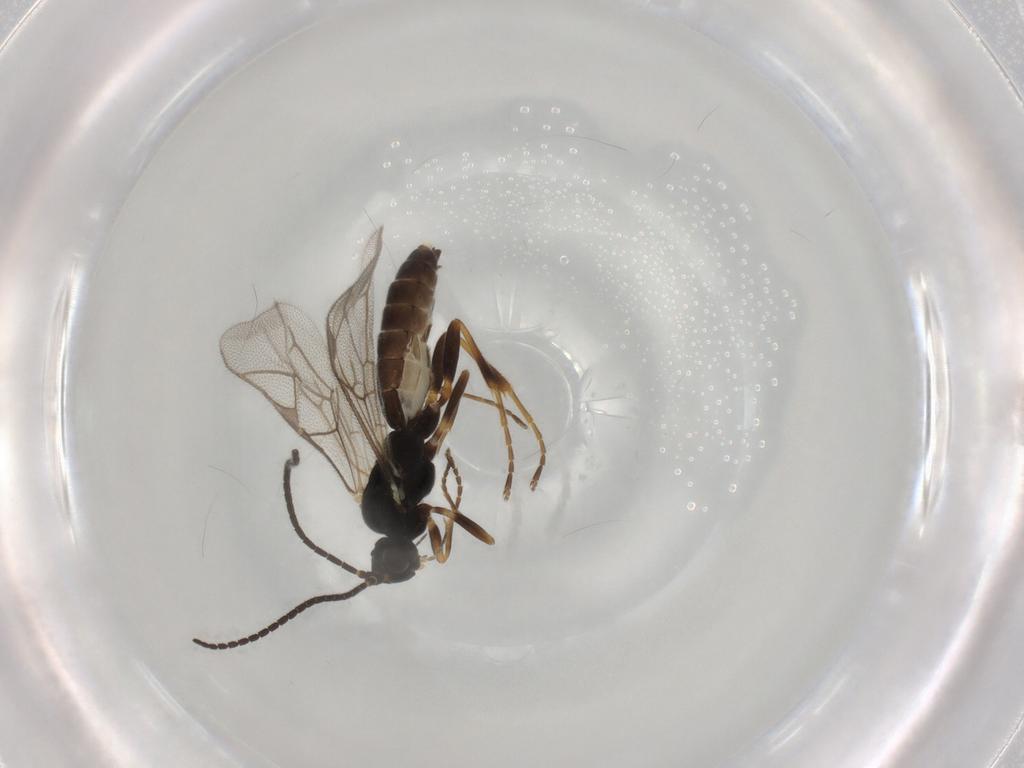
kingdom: Animalia
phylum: Arthropoda
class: Insecta
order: Hymenoptera
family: Ichneumonidae
